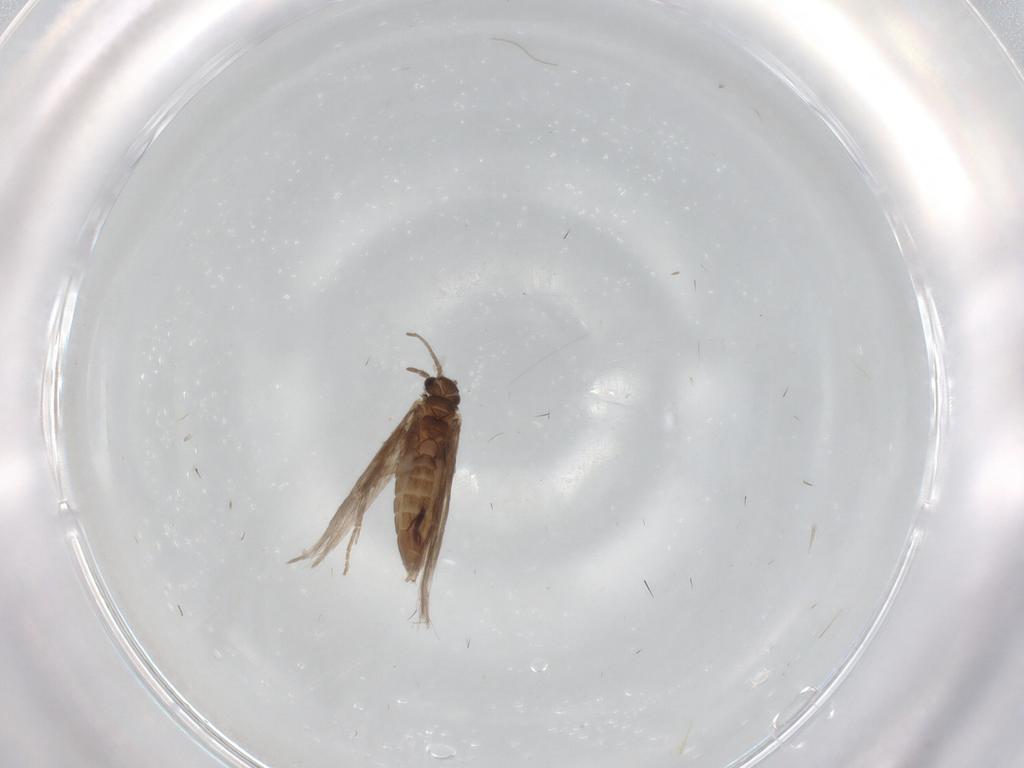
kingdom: Animalia
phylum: Arthropoda
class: Insecta
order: Trichoptera
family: Hydroptilidae
